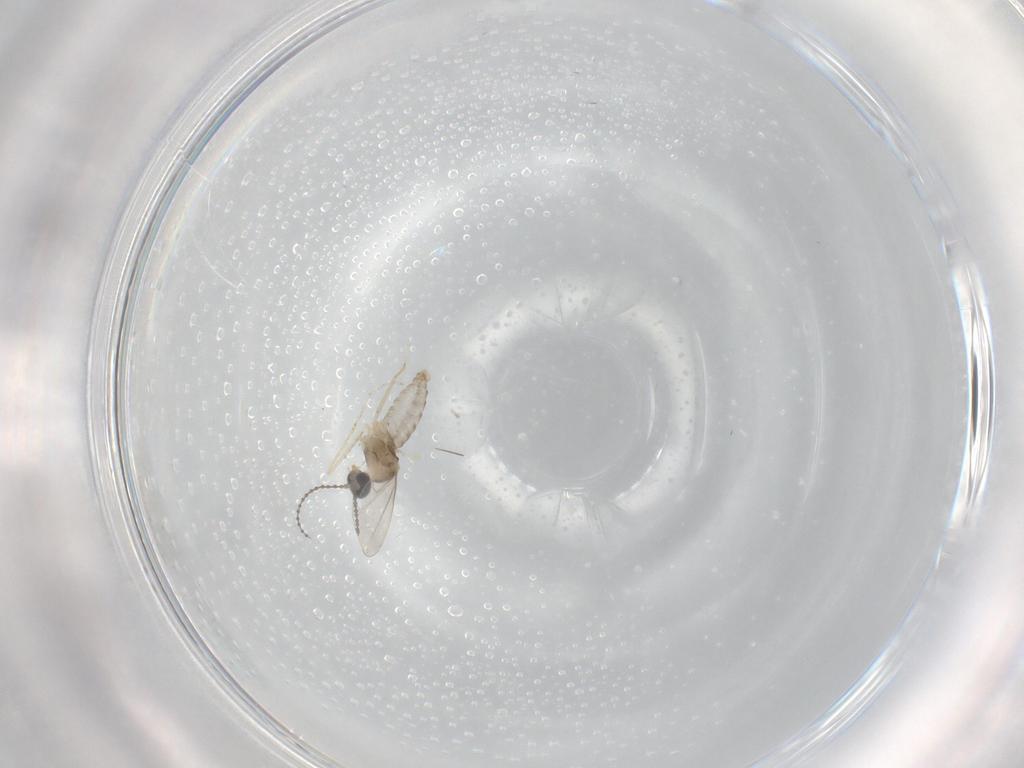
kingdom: Animalia
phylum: Arthropoda
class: Insecta
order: Diptera
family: Cecidomyiidae
